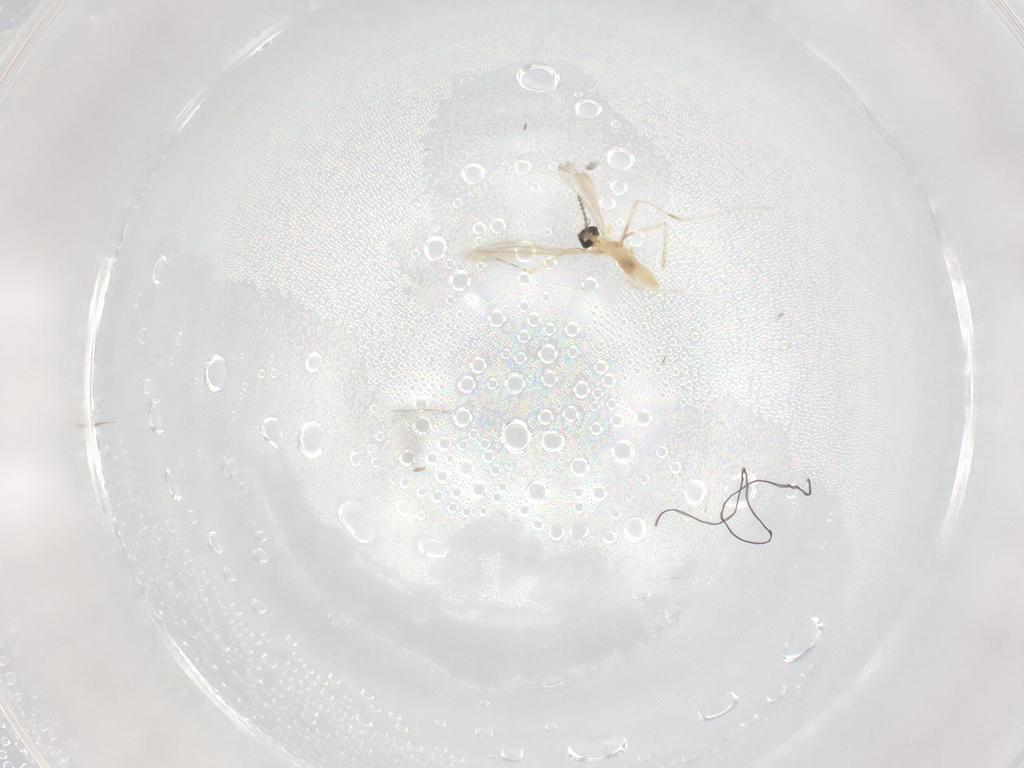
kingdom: Animalia
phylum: Arthropoda
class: Insecta
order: Diptera
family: Cecidomyiidae
